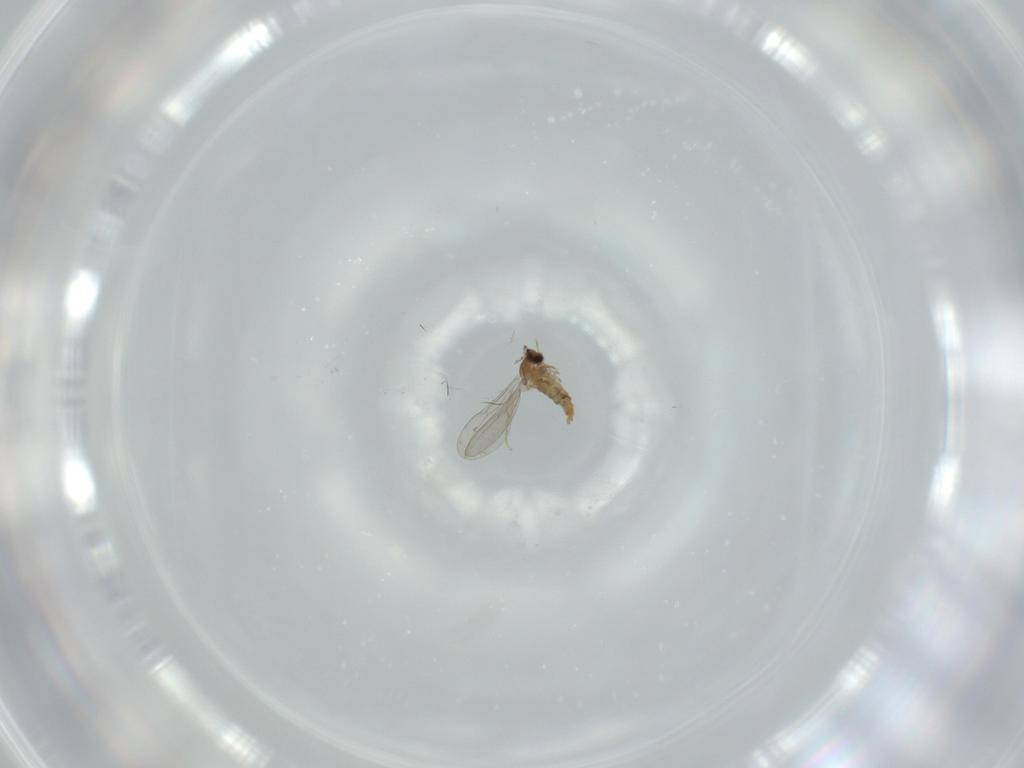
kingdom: Animalia
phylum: Arthropoda
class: Insecta
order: Diptera
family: Cecidomyiidae
